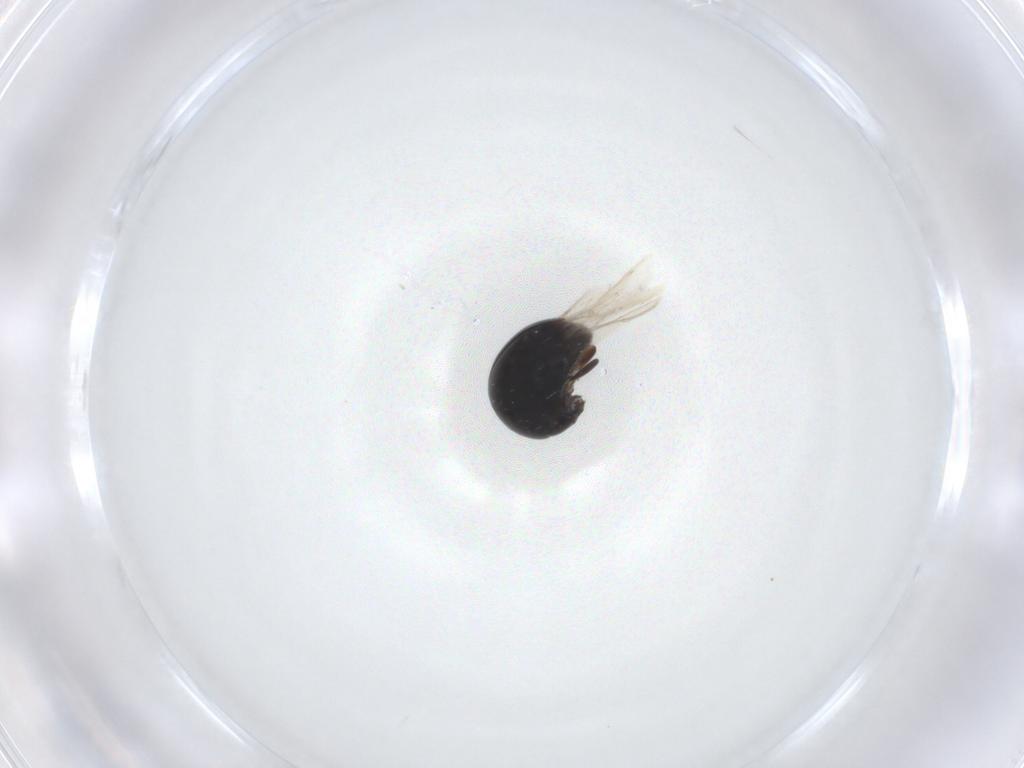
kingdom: Animalia
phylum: Arthropoda
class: Insecta
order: Coleoptera
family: Cybocephalidae
